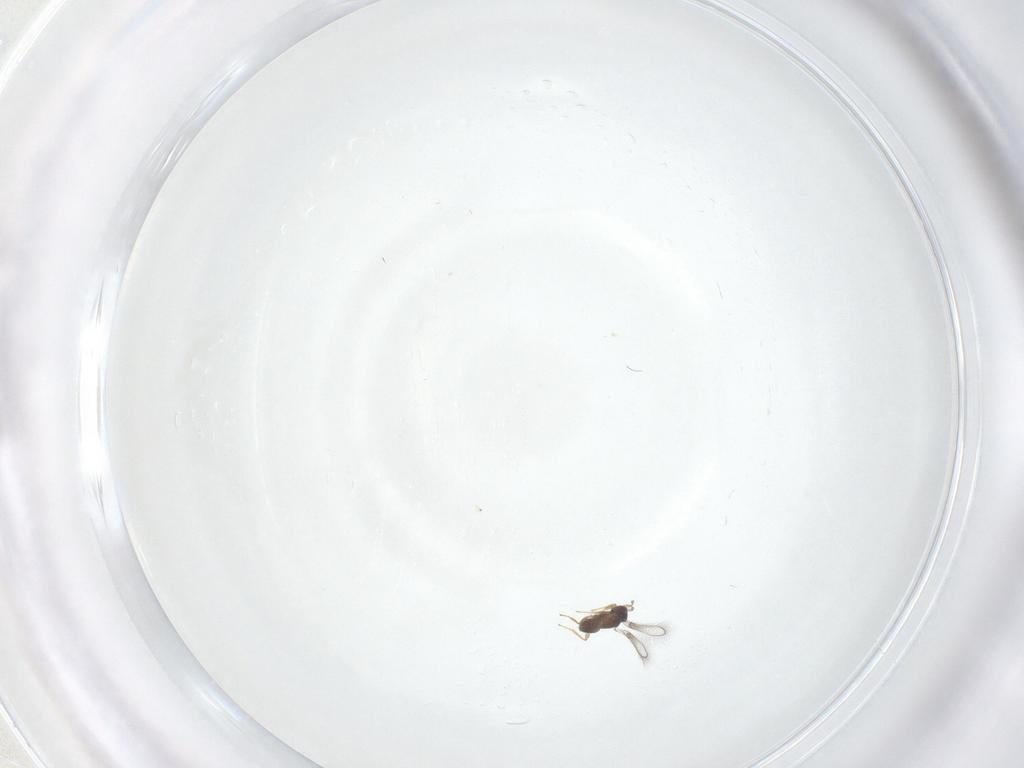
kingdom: Animalia
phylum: Arthropoda
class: Insecta
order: Hymenoptera
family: Mymaridae
